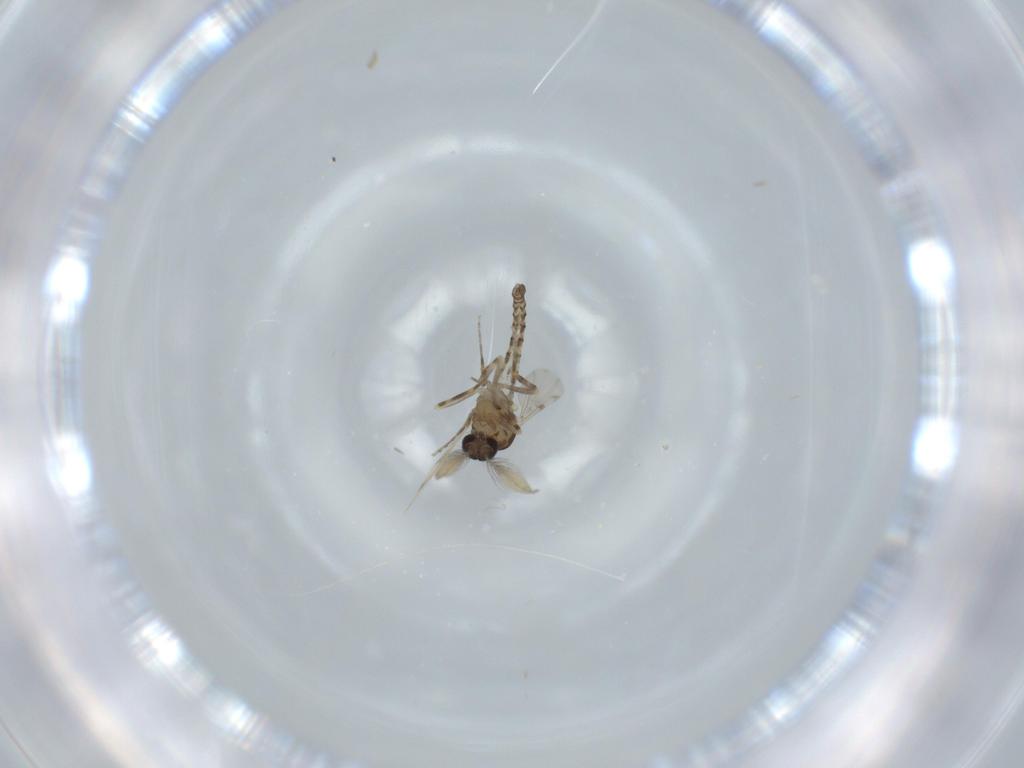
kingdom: Animalia
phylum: Arthropoda
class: Insecta
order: Diptera
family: Ceratopogonidae
